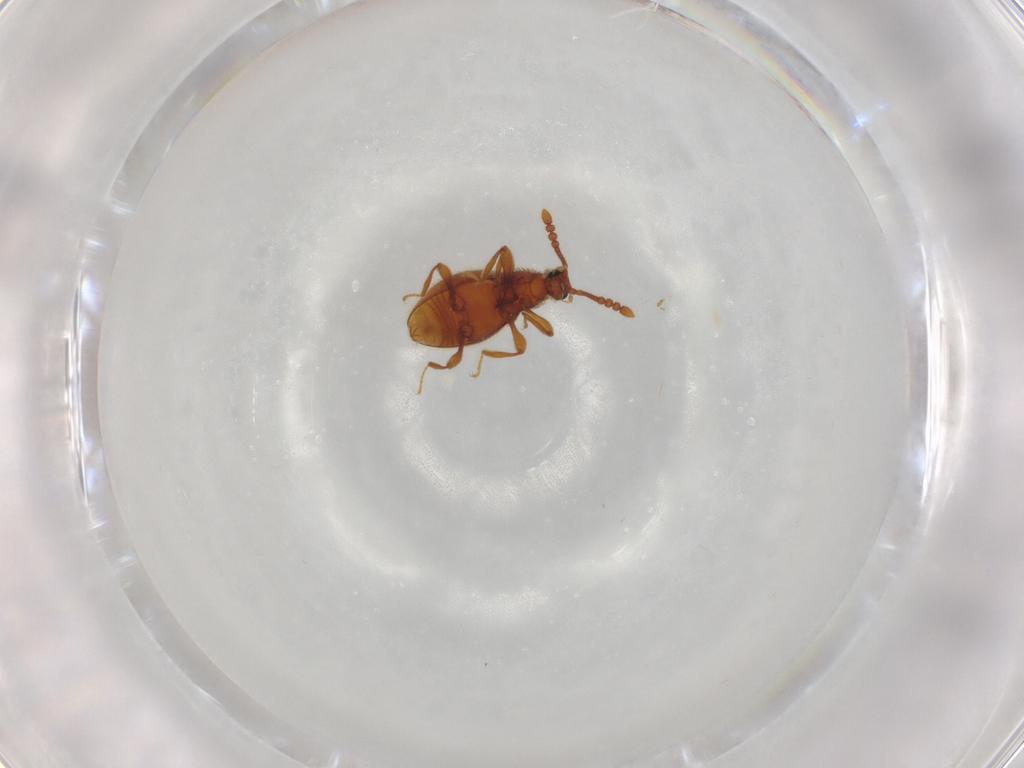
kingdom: Animalia
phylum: Arthropoda
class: Insecta
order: Coleoptera
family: Staphylinidae
